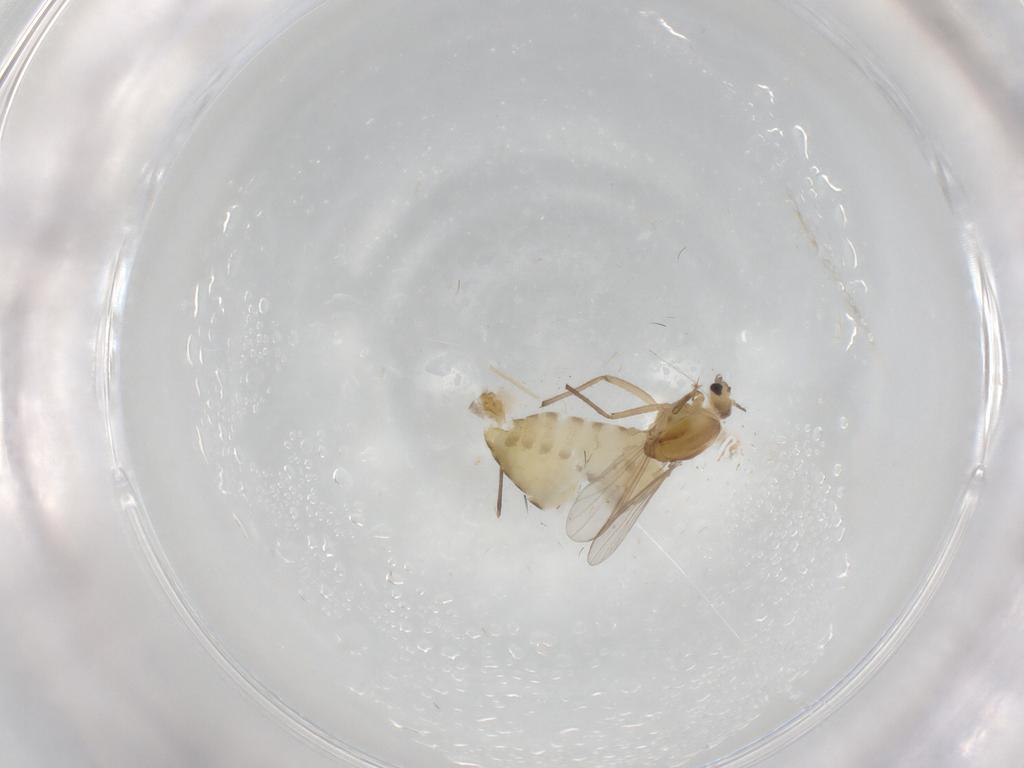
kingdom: Animalia
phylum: Arthropoda
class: Insecta
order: Diptera
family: Chironomidae
